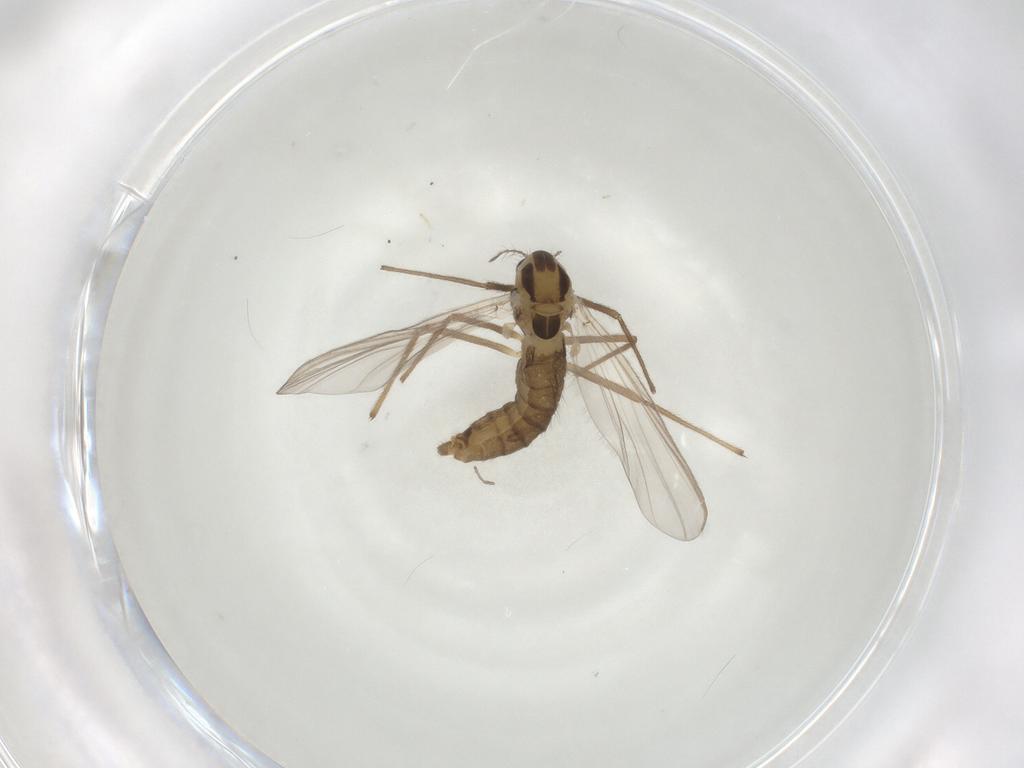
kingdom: Animalia
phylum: Arthropoda
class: Insecta
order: Diptera
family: Chironomidae
